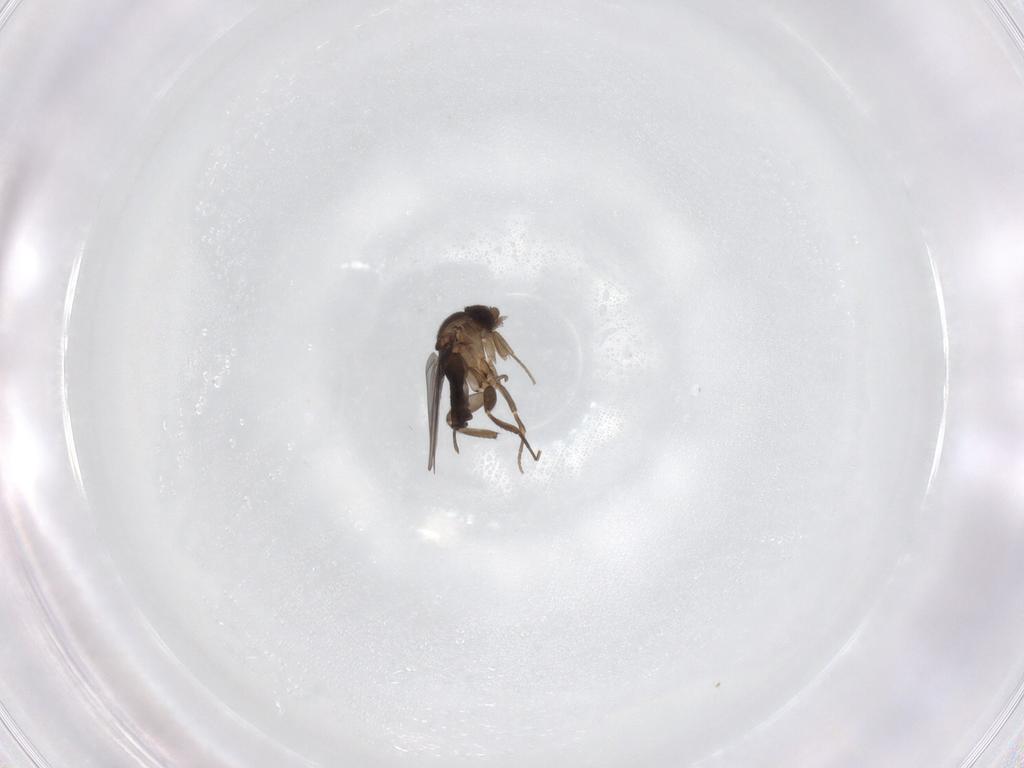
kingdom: Animalia
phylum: Arthropoda
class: Insecta
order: Diptera
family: Phoridae
